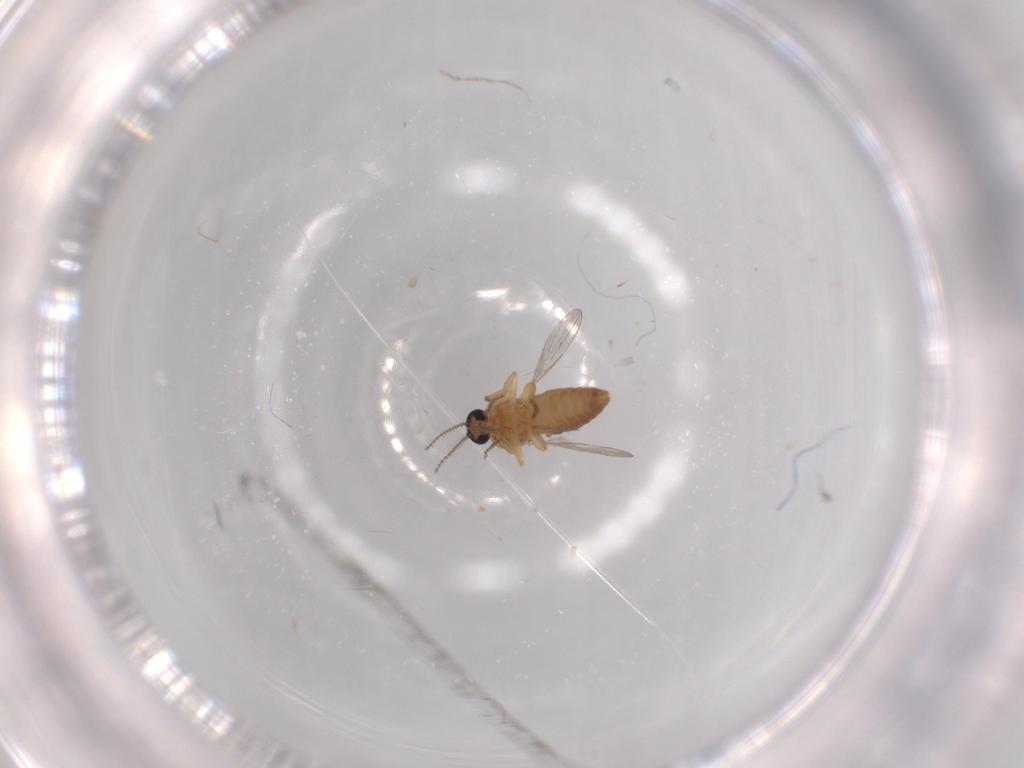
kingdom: Animalia
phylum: Arthropoda
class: Insecta
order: Diptera
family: Ceratopogonidae
